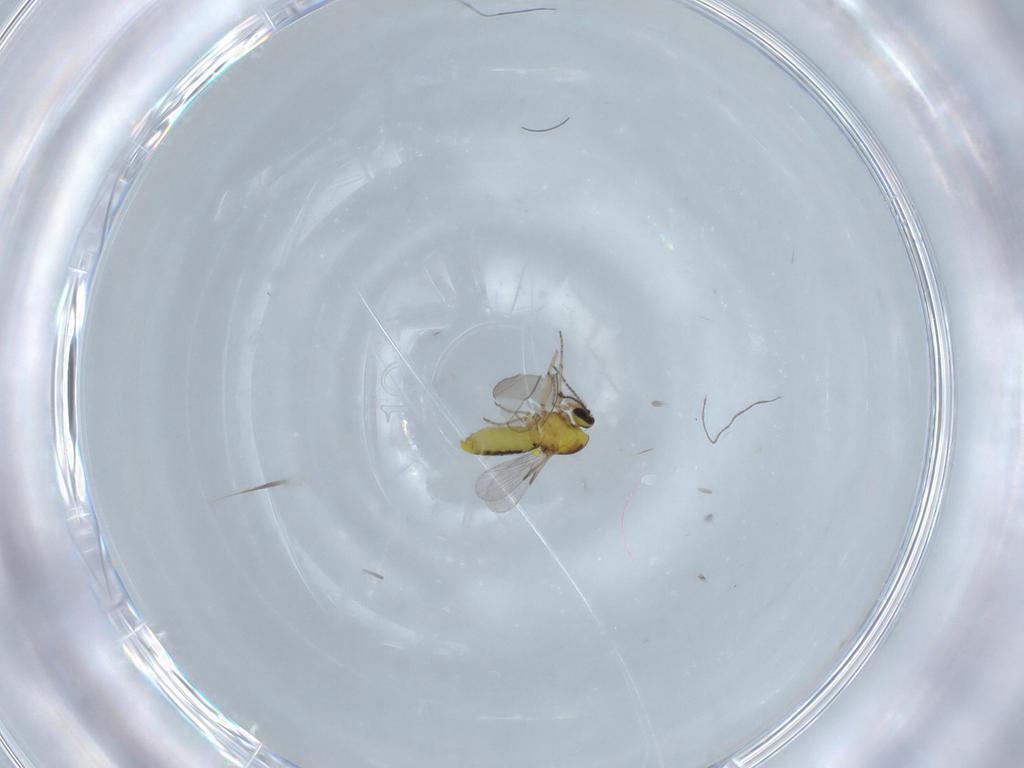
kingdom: Animalia
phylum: Arthropoda
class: Insecta
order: Diptera
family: Ceratopogonidae
